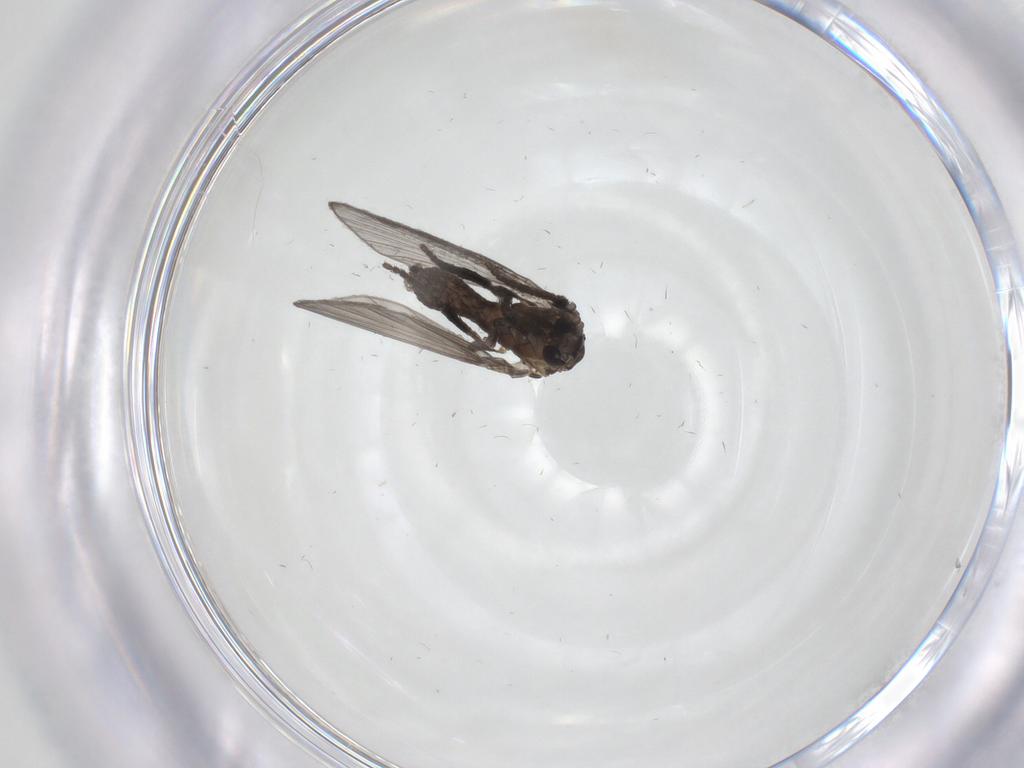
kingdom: Animalia
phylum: Arthropoda
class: Insecta
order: Diptera
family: Psychodidae
